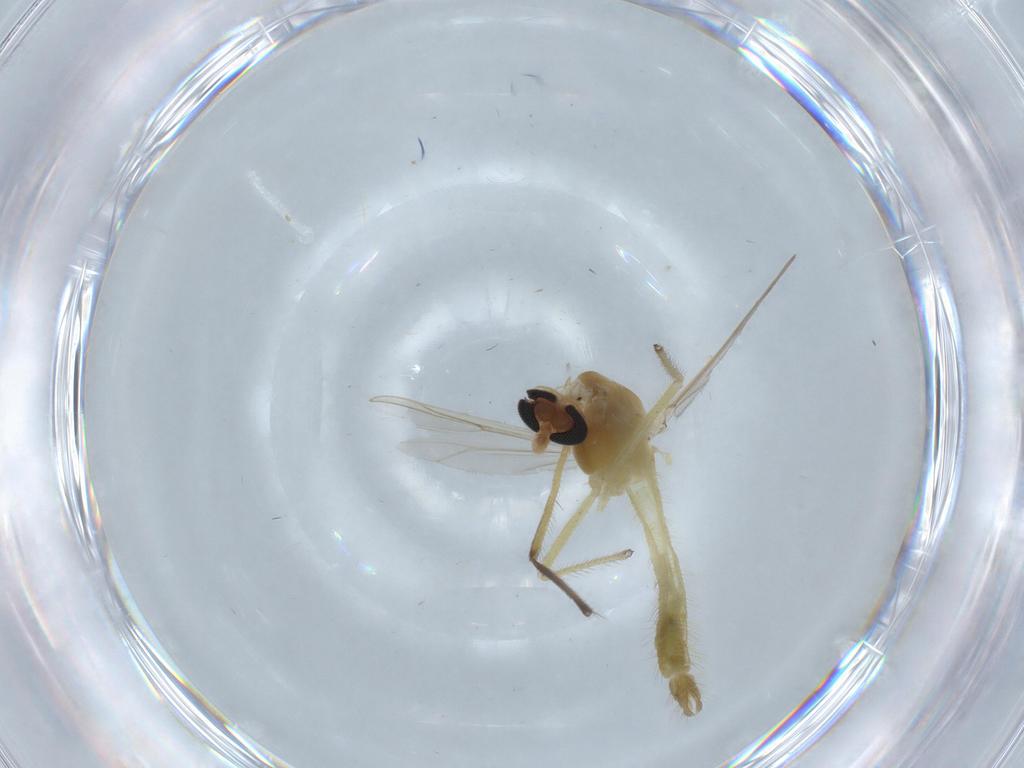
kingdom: Animalia
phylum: Arthropoda
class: Insecta
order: Diptera
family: Chironomidae
